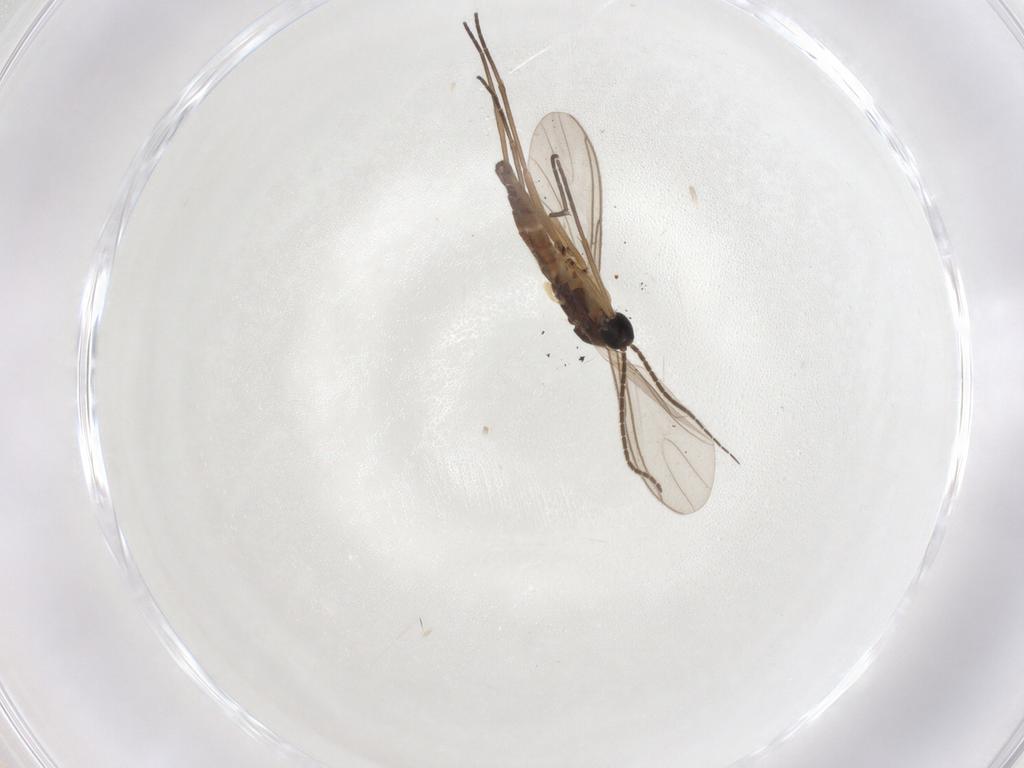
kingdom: Animalia
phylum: Arthropoda
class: Insecta
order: Diptera
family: Sciaridae
